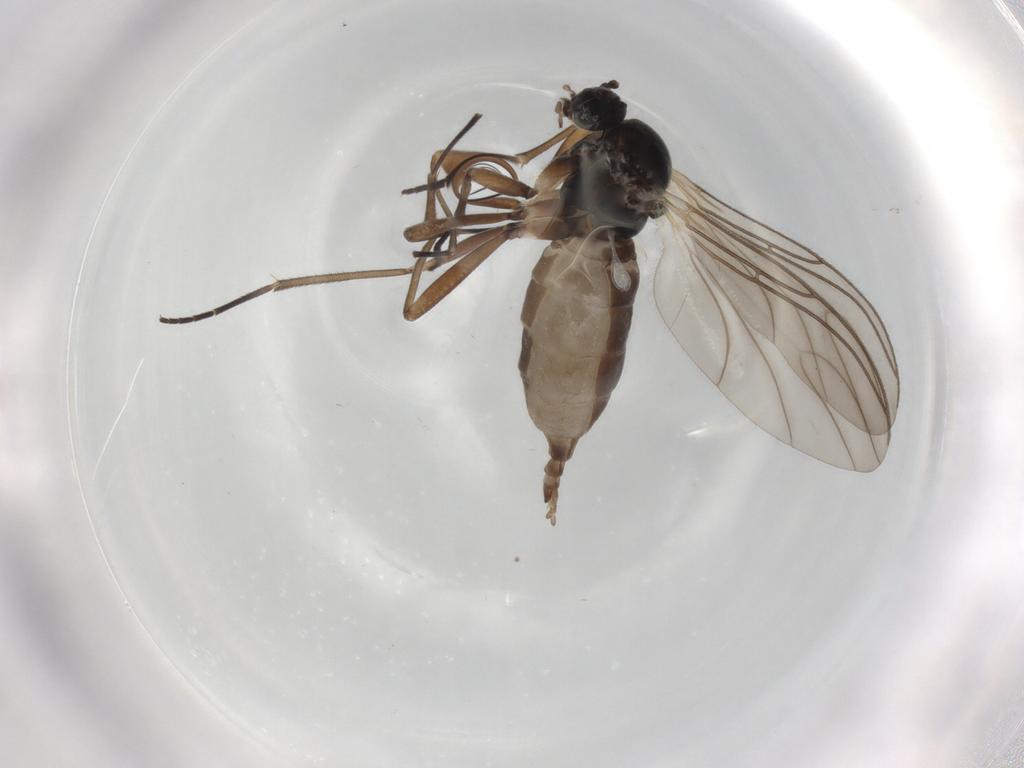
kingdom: Animalia
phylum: Arthropoda
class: Insecta
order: Diptera
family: Sciaridae
